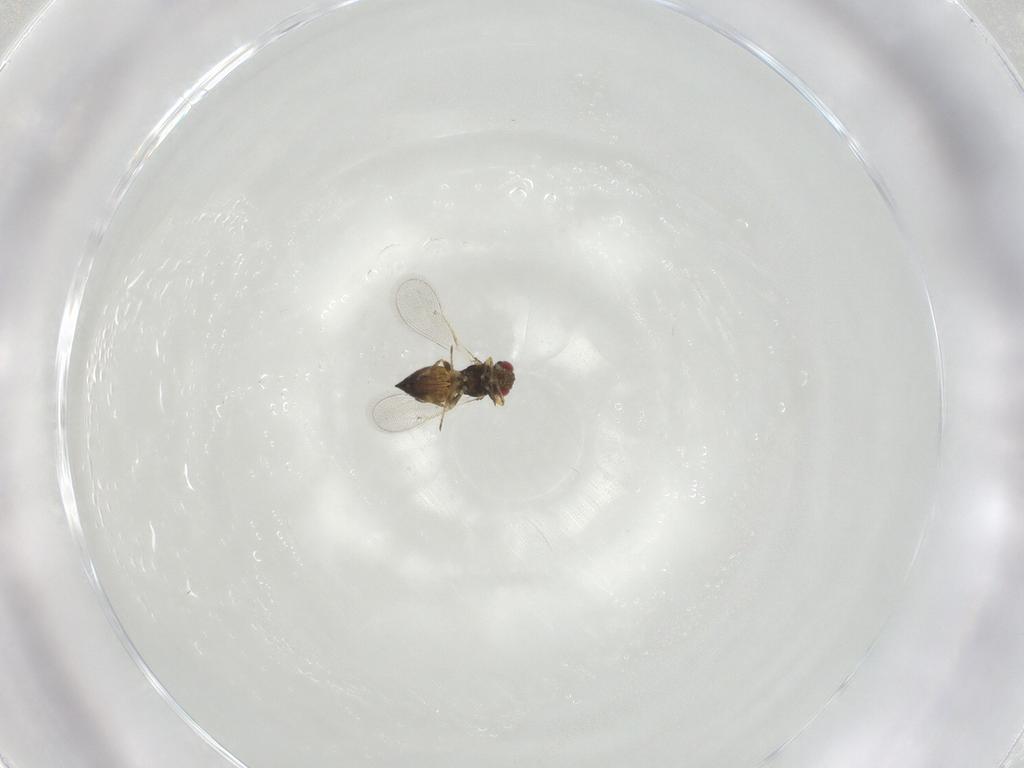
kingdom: Animalia
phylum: Arthropoda
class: Insecta
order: Hymenoptera
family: Eulophidae
